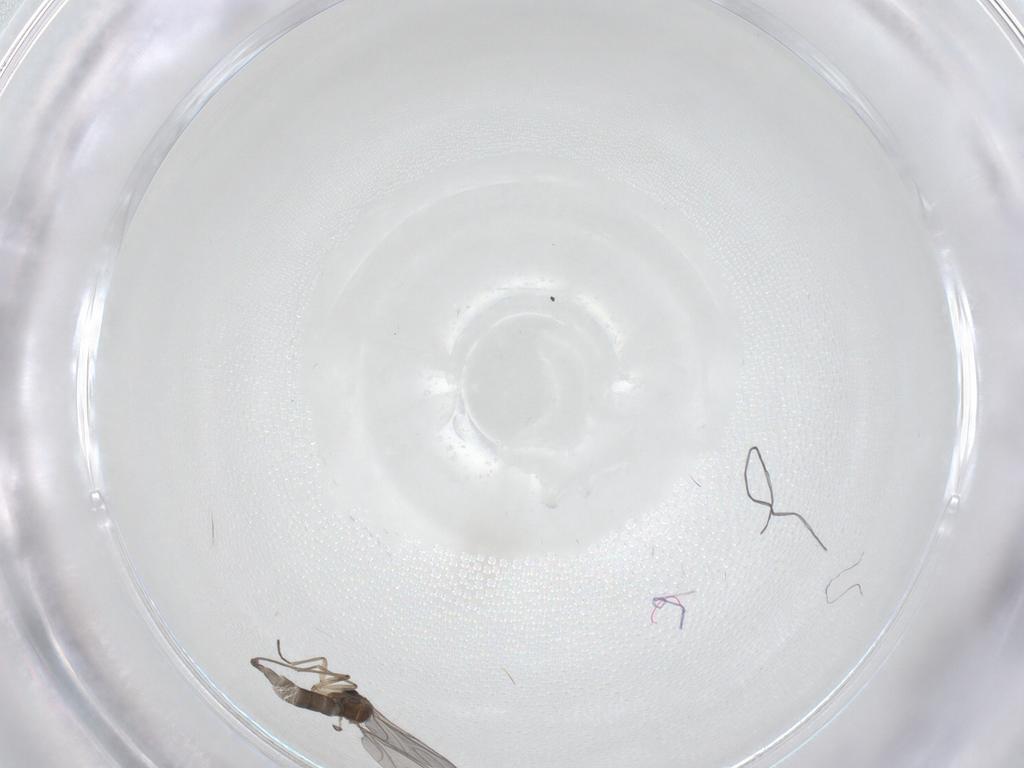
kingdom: Animalia
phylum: Arthropoda
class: Insecta
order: Diptera
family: Sciaridae
